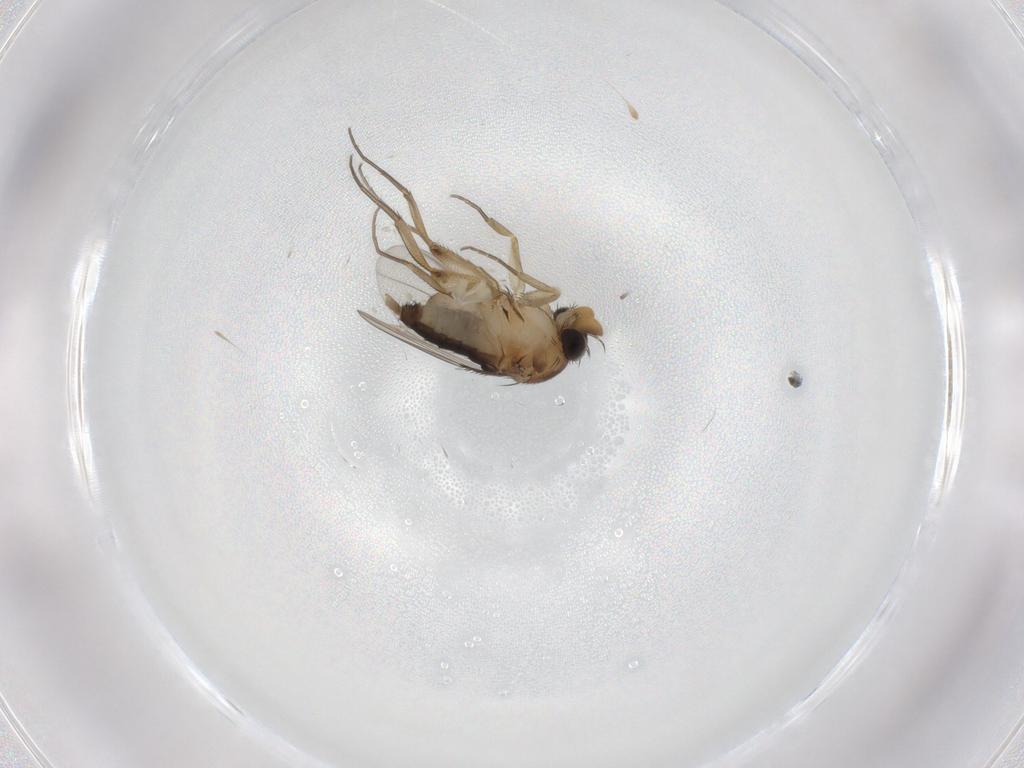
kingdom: Animalia
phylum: Arthropoda
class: Insecta
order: Diptera
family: Phoridae
